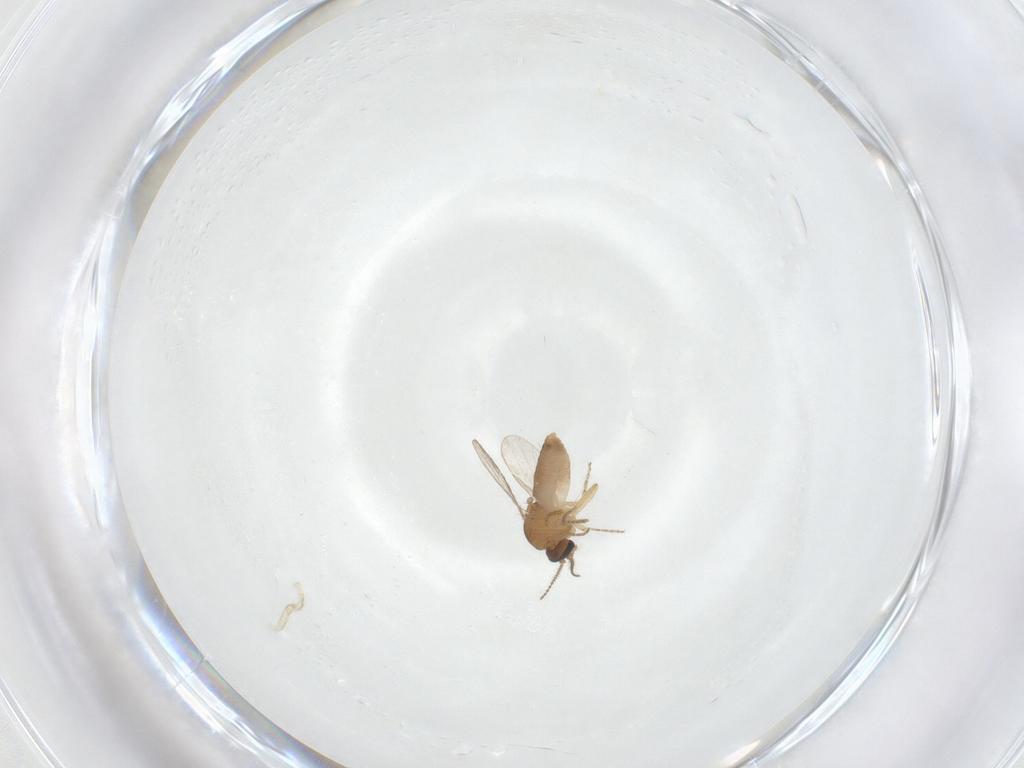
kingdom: Animalia
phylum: Arthropoda
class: Insecta
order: Diptera
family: Ceratopogonidae
